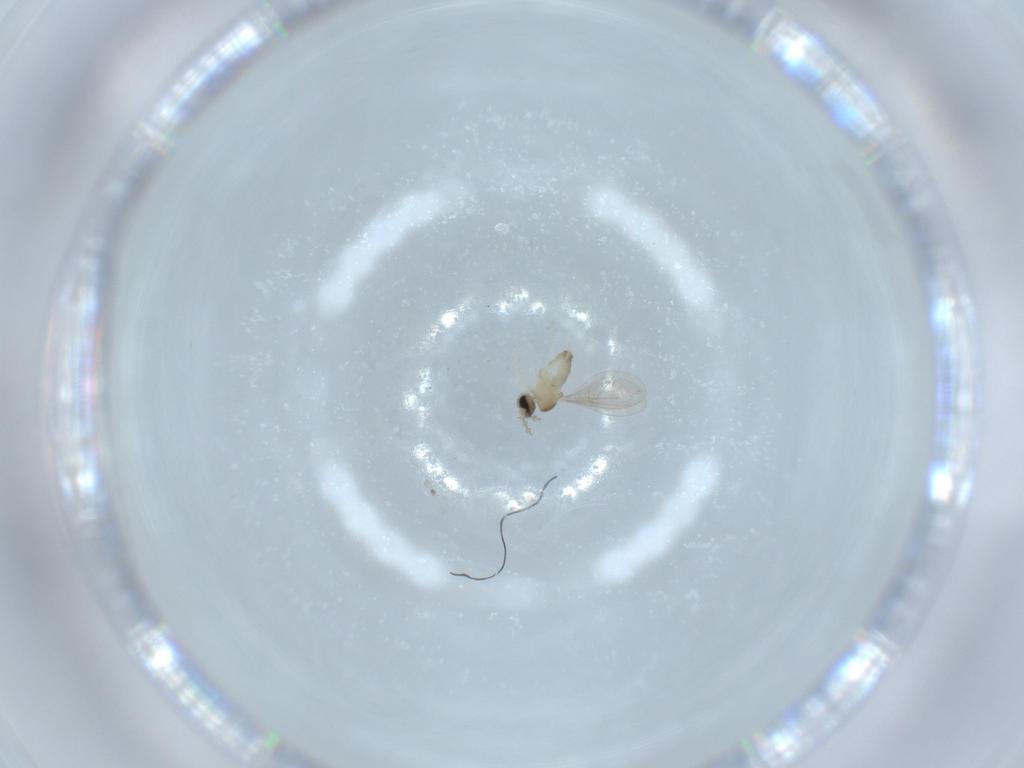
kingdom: Animalia
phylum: Arthropoda
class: Insecta
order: Diptera
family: Cecidomyiidae
